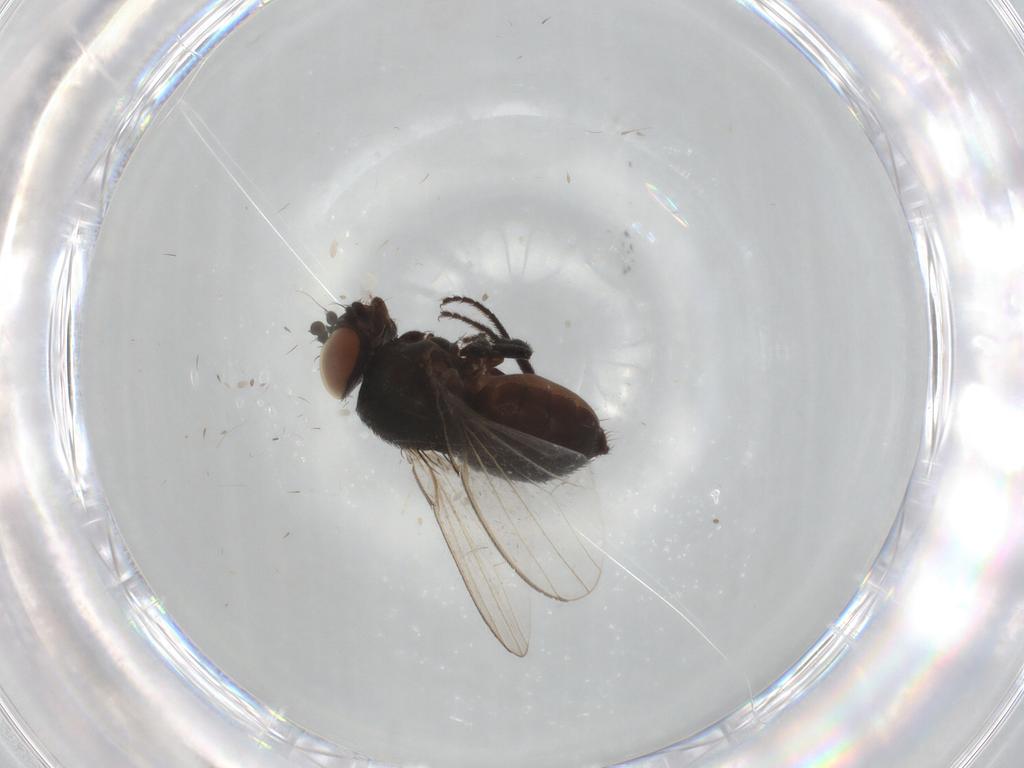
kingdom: Animalia
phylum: Arthropoda
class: Insecta
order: Diptera
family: Milichiidae
